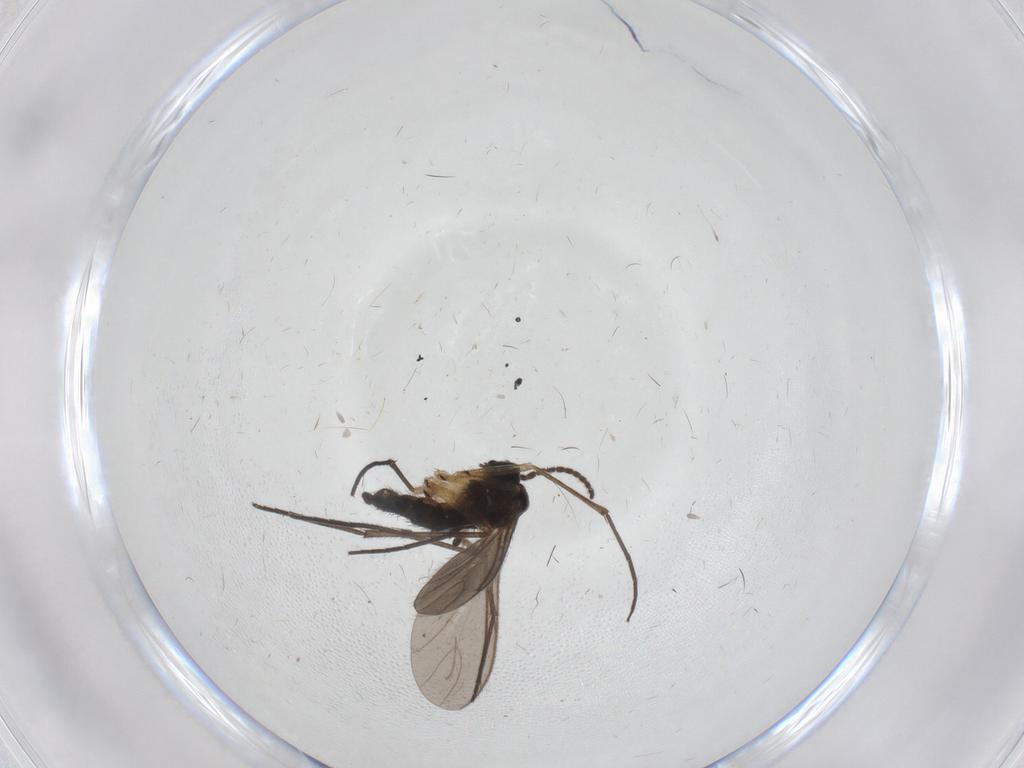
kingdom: Animalia
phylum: Arthropoda
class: Insecta
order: Diptera
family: Sciaridae
